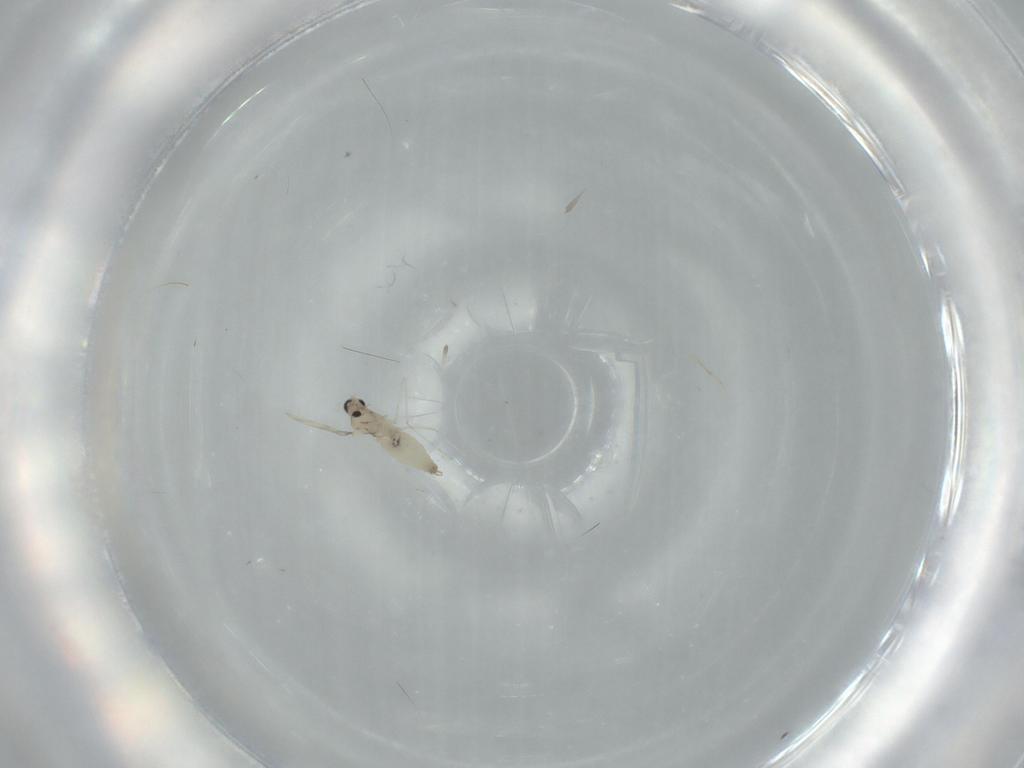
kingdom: Animalia
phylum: Arthropoda
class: Insecta
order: Diptera
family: Cecidomyiidae
